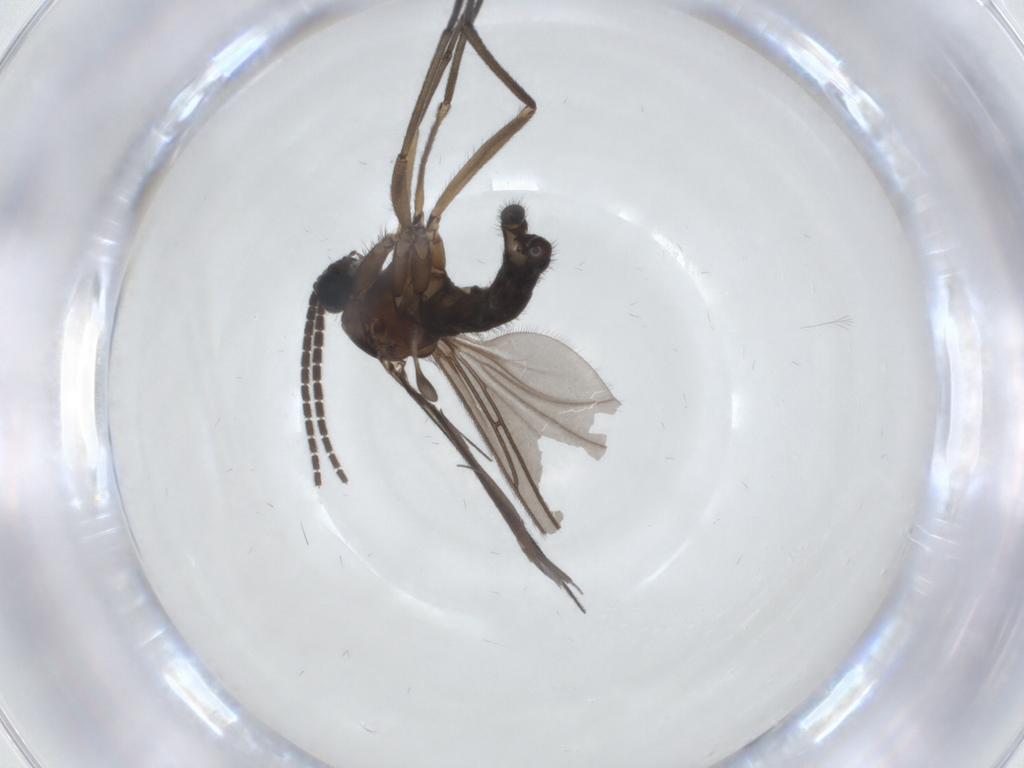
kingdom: Animalia
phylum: Arthropoda
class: Insecta
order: Diptera
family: Sciaridae
